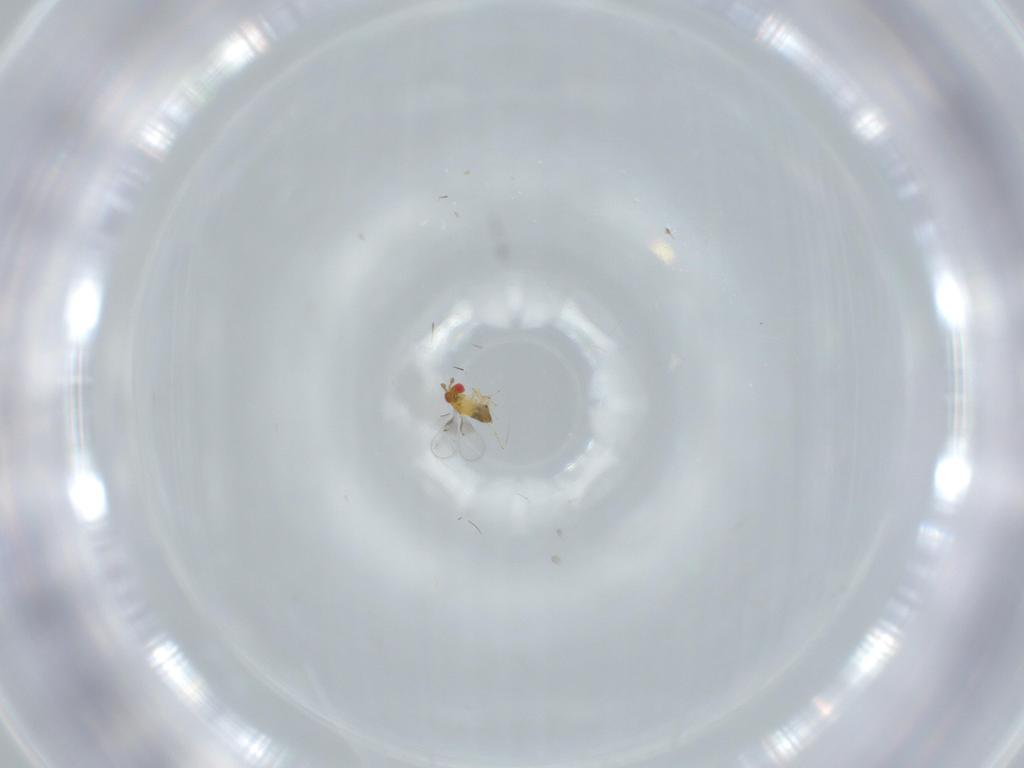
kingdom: Animalia
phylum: Arthropoda
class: Insecta
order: Hymenoptera
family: Trichogrammatidae
